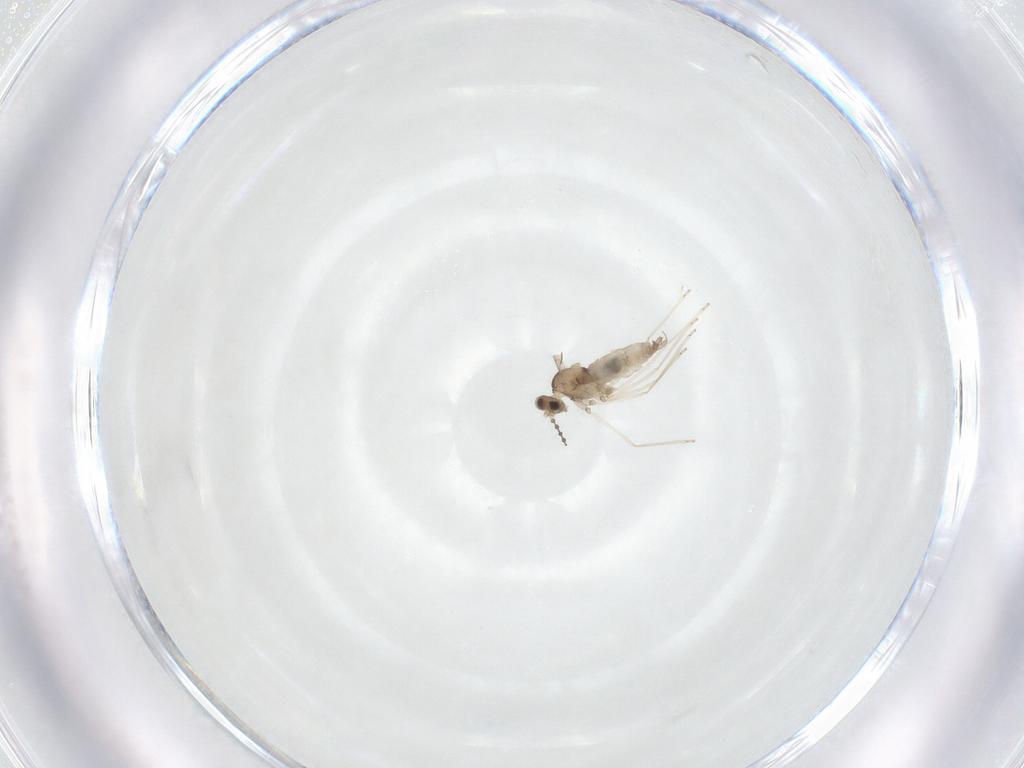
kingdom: Animalia
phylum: Arthropoda
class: Insecta
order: Diptera
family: Cecidomyiidae
